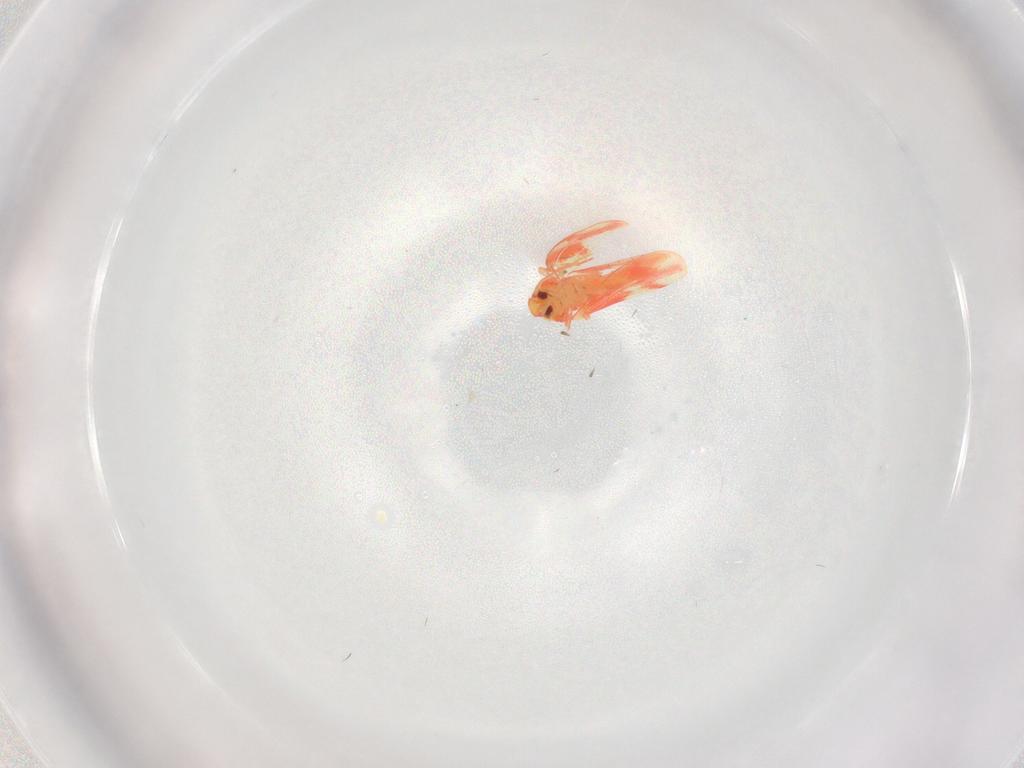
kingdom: Animalia
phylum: Arthropoda
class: Insecta
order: Hemiptera
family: Aleyrodidae
